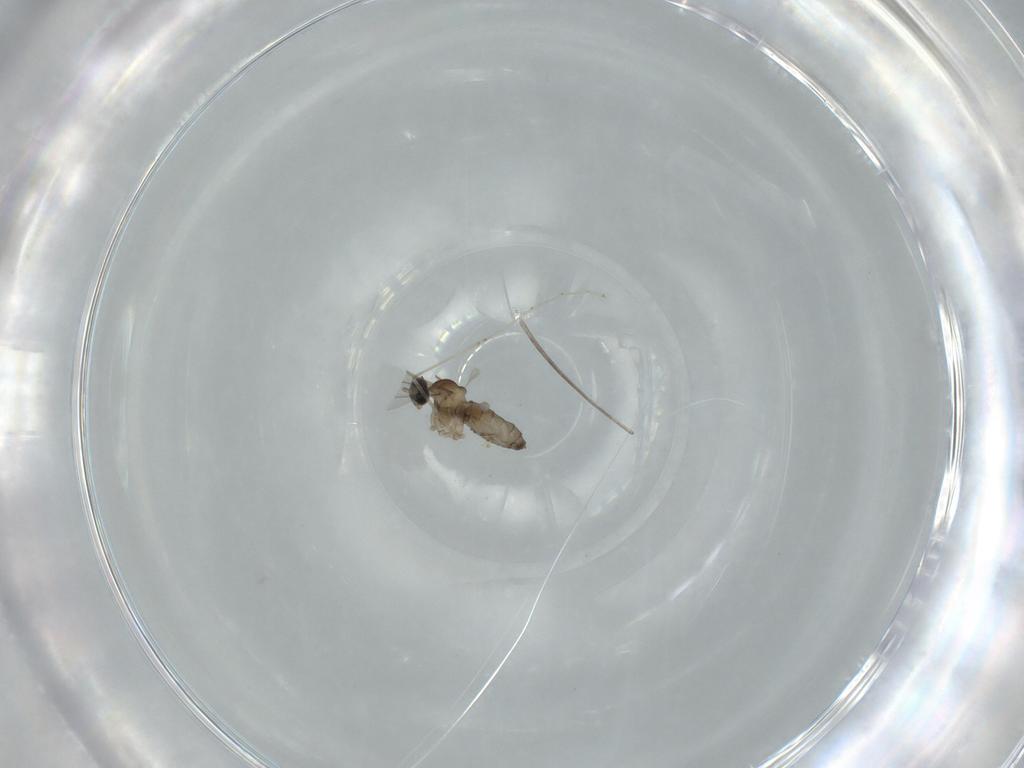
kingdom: Animalia
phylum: Arthropoda
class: Insecta
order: Diptera
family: Cecidomyiidae
